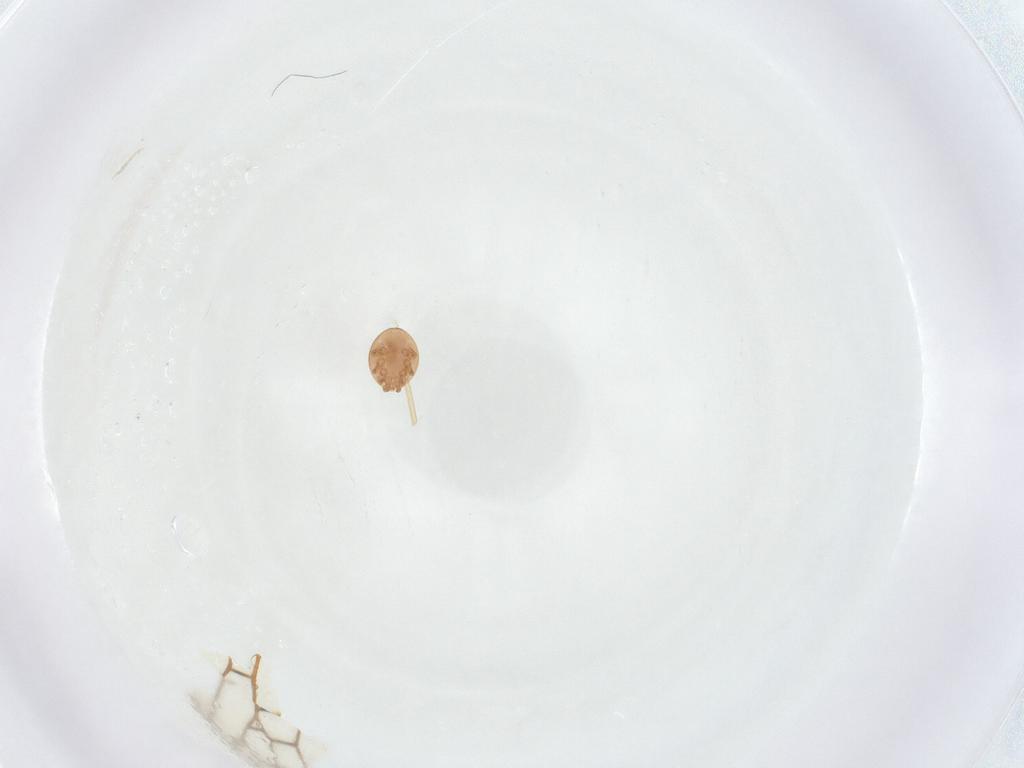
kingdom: Animalia
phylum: Arthropoda
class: Arachnida
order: Mesostigmata
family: Trematuridae
